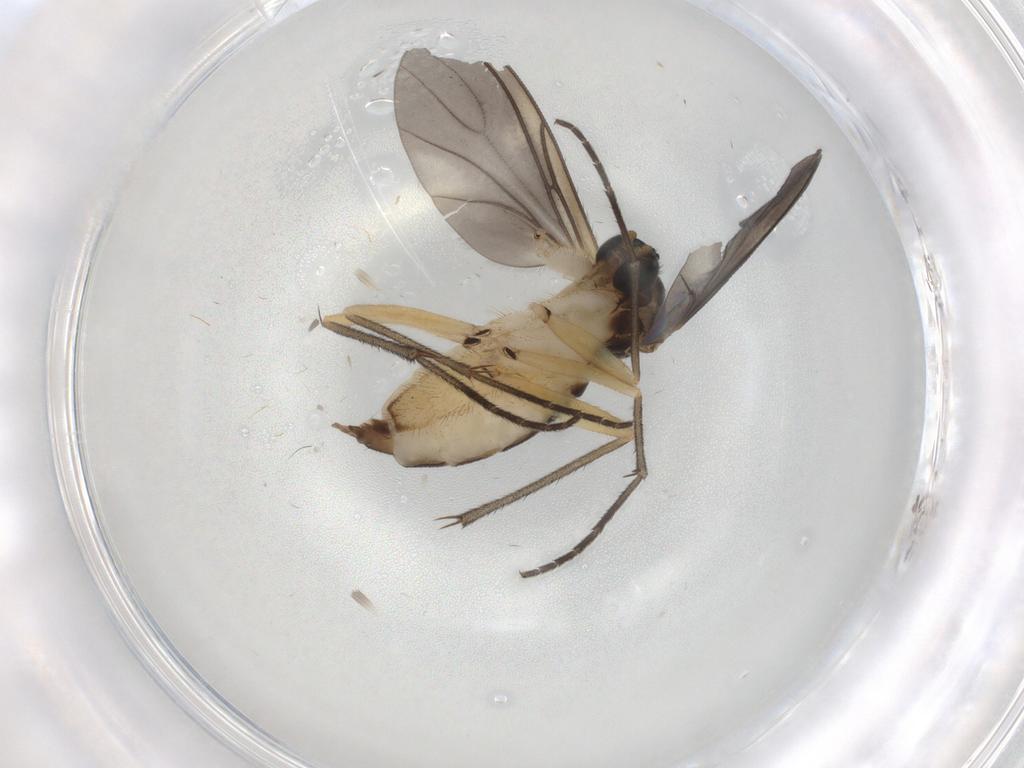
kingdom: Animalia
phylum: Arthropoda
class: Insecta
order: Diptera
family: Sciaridae
